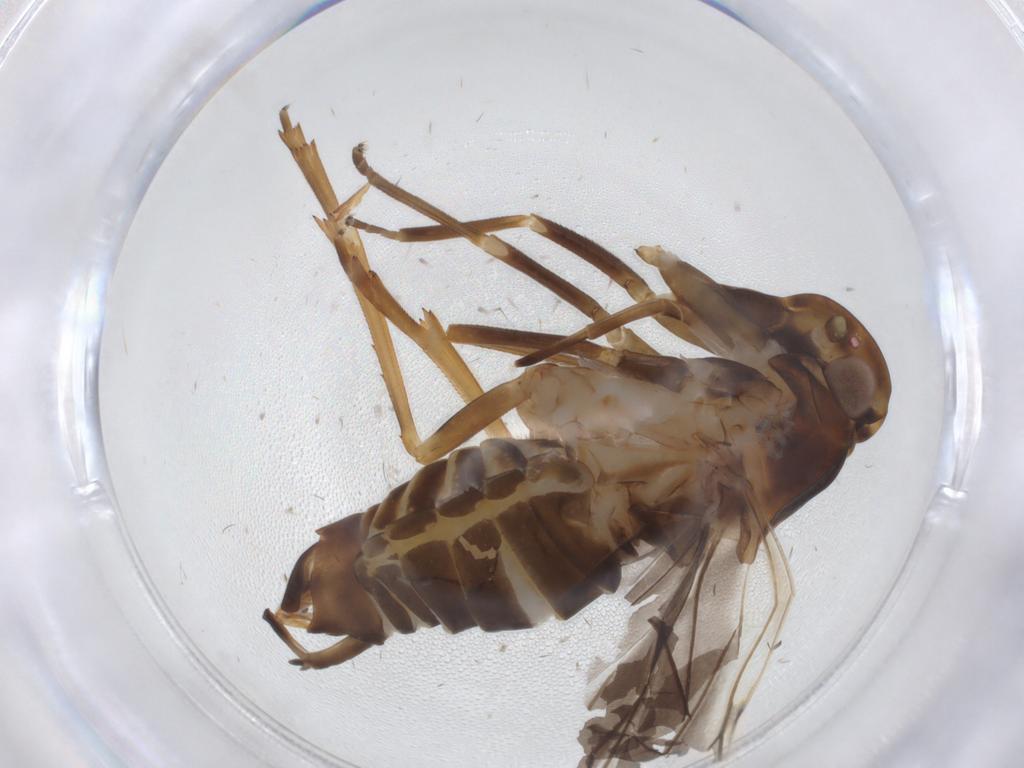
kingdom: Animalia
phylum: Arthropoda
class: Insecta
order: Hemiptera
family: Cixiidae
